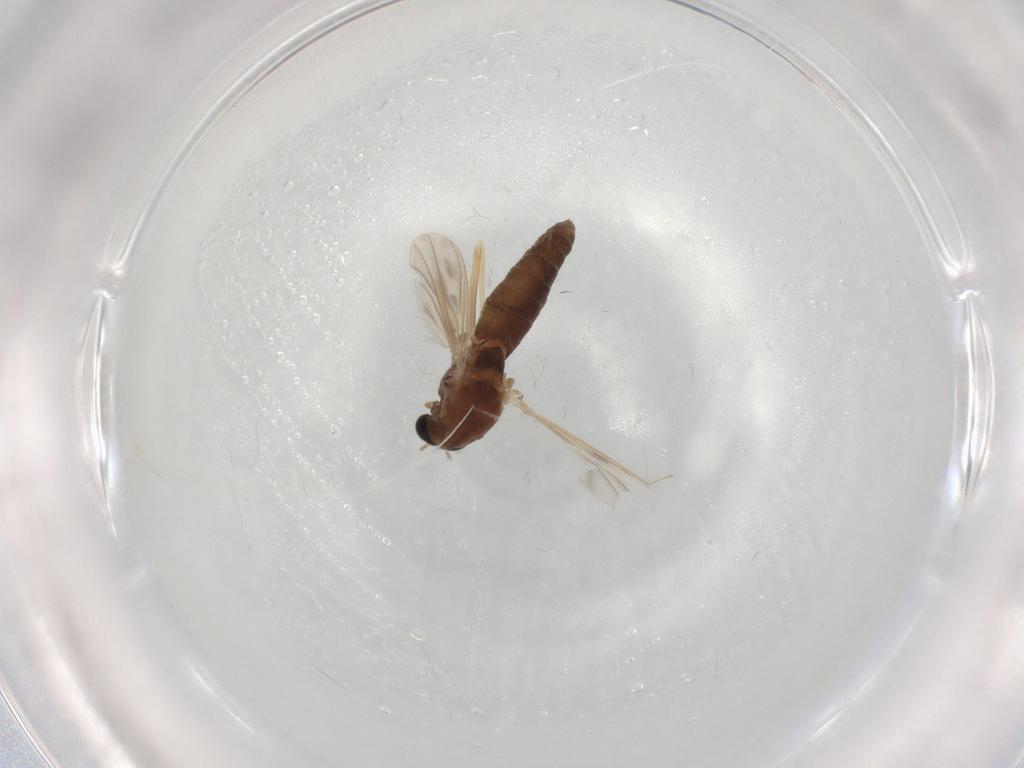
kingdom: Animalia
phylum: Arthropoda
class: Insecta
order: Diptera
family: Chironomidae
